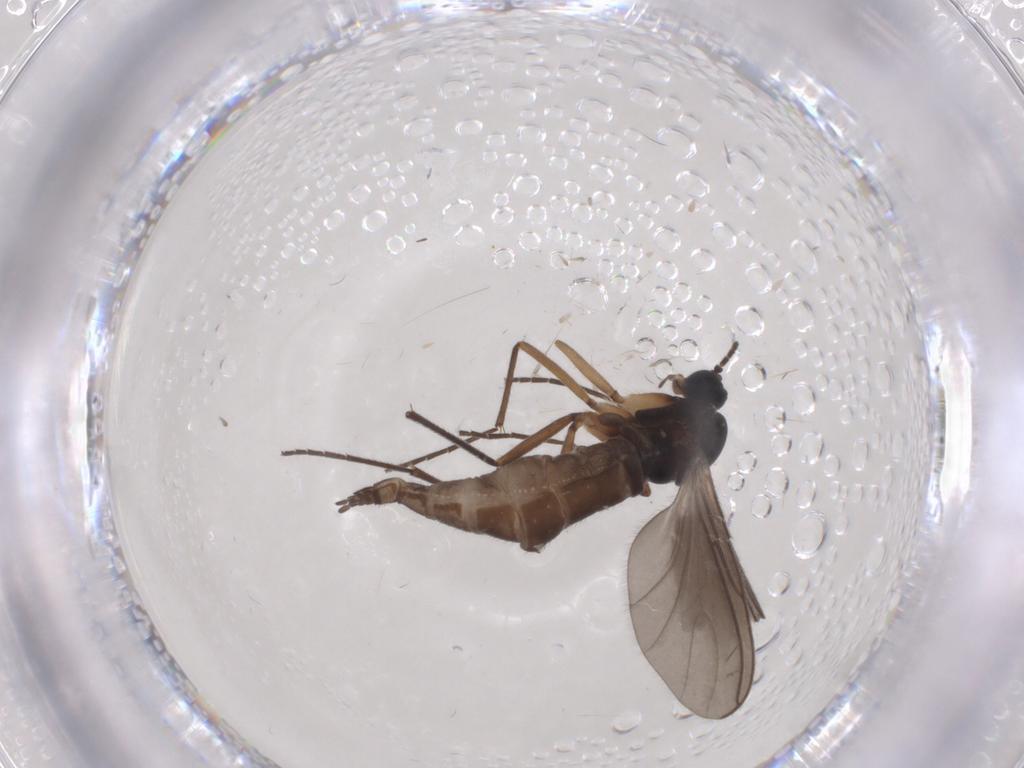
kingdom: Animalia
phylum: Arthropoda
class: Insecta
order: Diptera
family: Sciaridae
